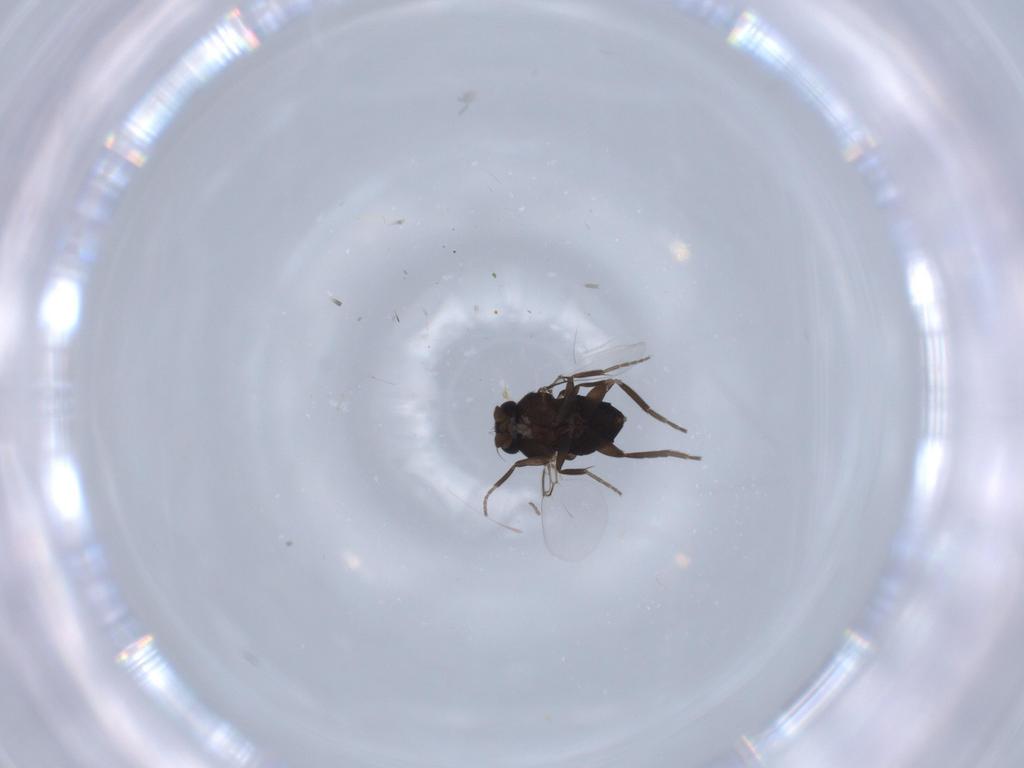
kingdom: Animalia
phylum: Arthropoda
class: Insecta
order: Diptera
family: Phoridae
